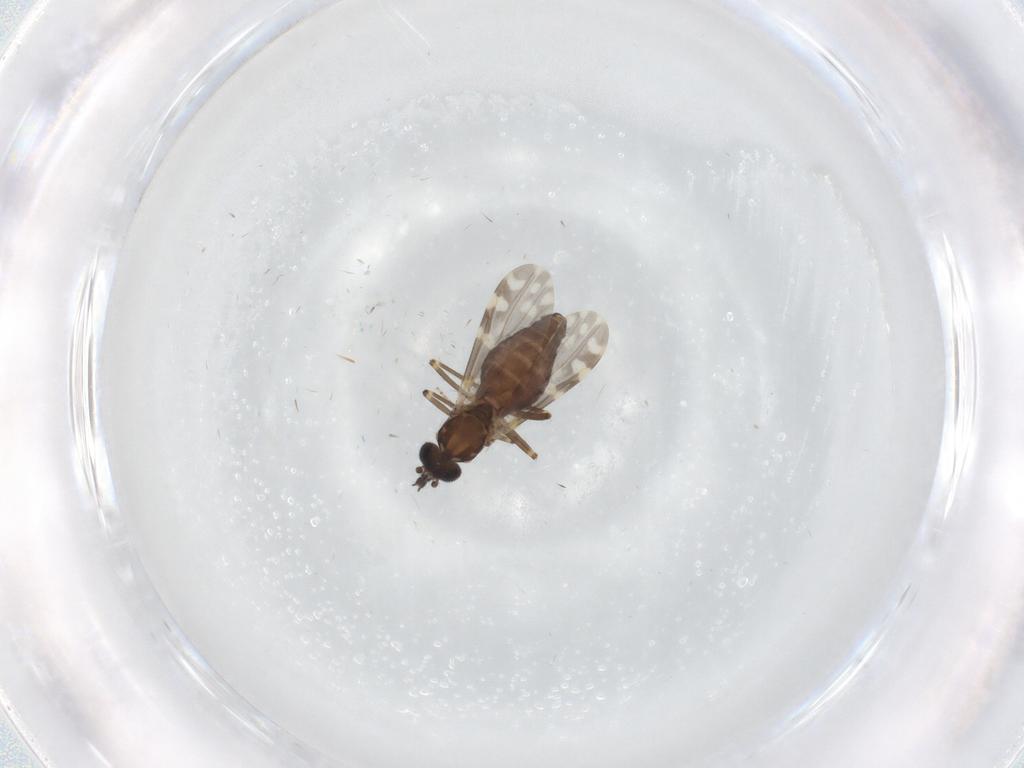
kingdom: Animalia
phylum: Arthropoda
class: Insecta
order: Diptera
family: Ceratopogonidae
